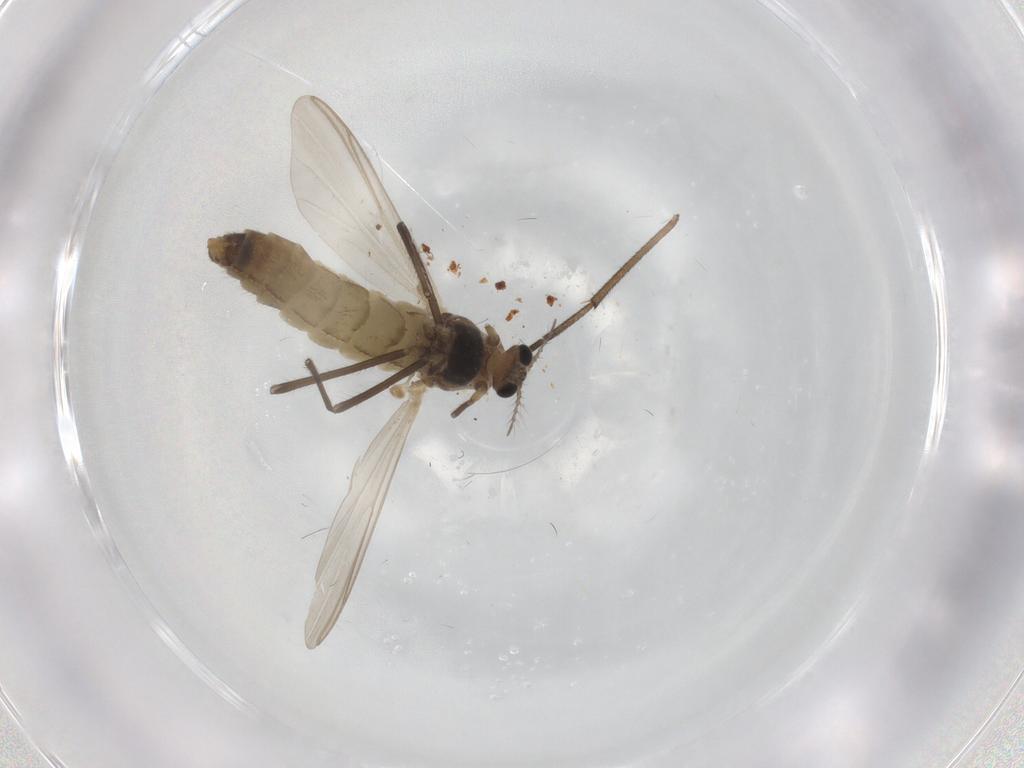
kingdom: Animalia
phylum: Arthropoda
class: Insecta
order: Diptera
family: Chironomidae
